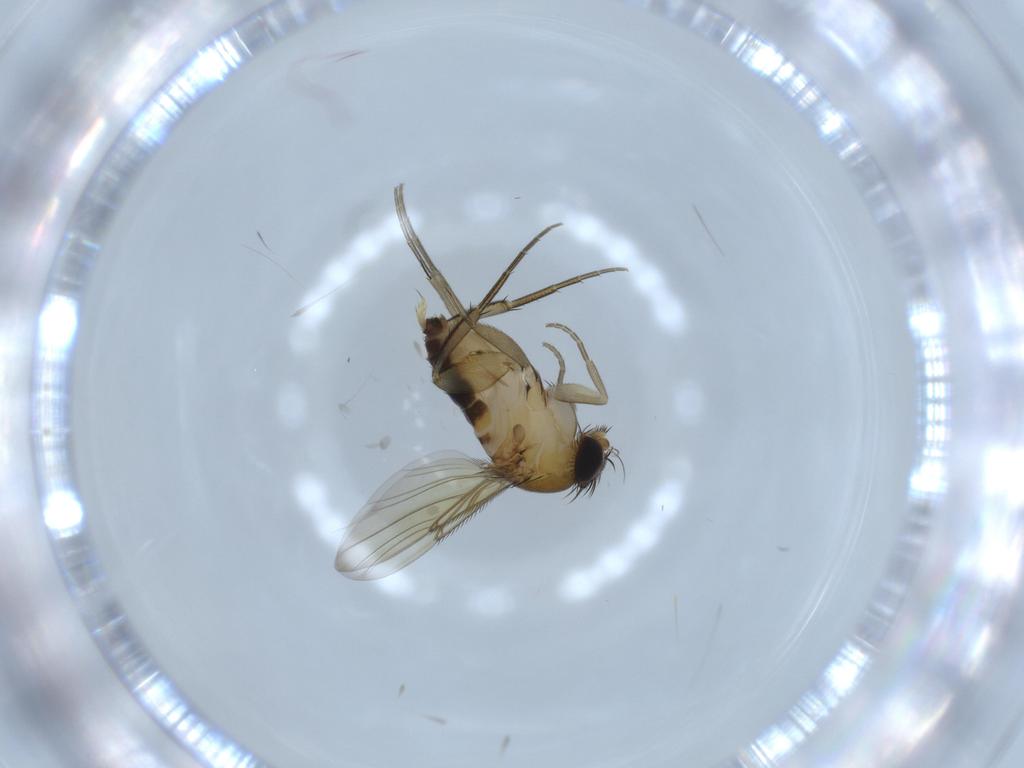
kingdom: Animalia
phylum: Arthropoda
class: Insecta
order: Diptera
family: Phoridae
